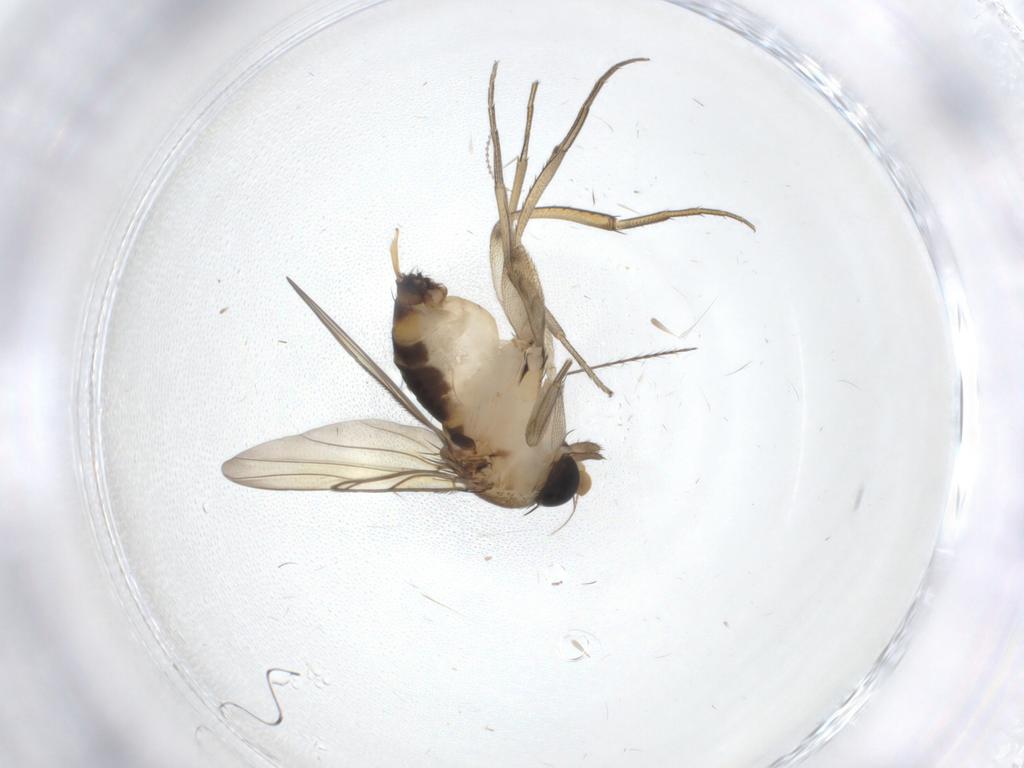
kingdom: Animalia
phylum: Arthropoda
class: Insecta
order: Diptera
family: Phoridae
